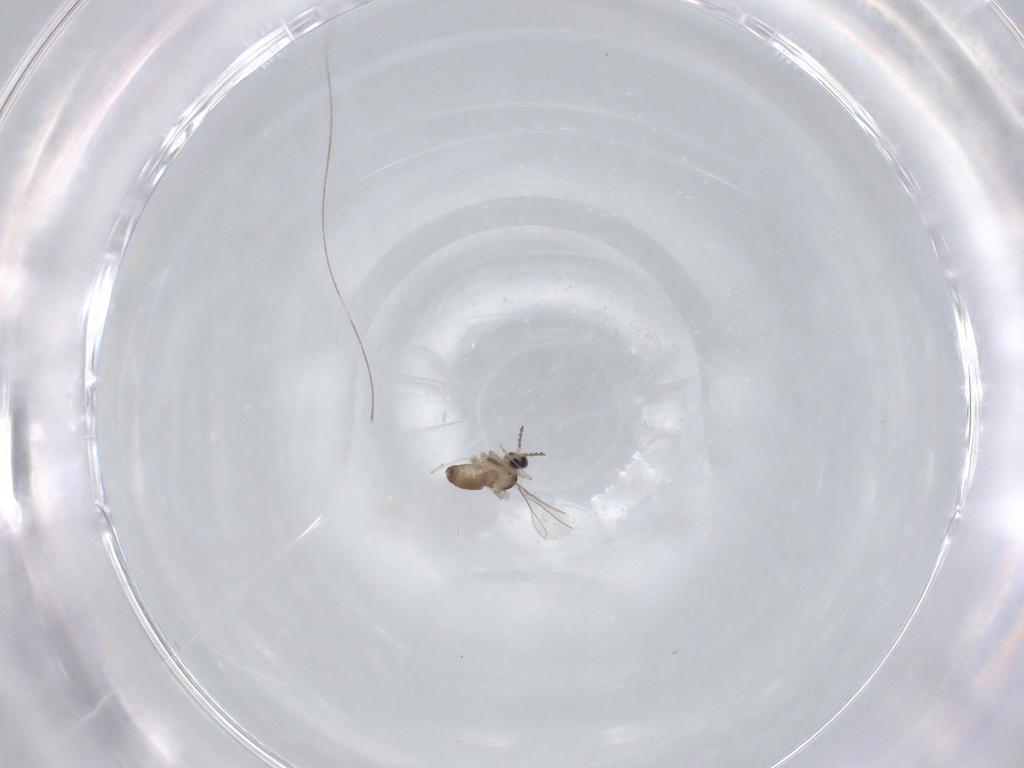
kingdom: Animalia
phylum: Arthropoda
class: Insecta
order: Diptera
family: Cecidomyiidae
